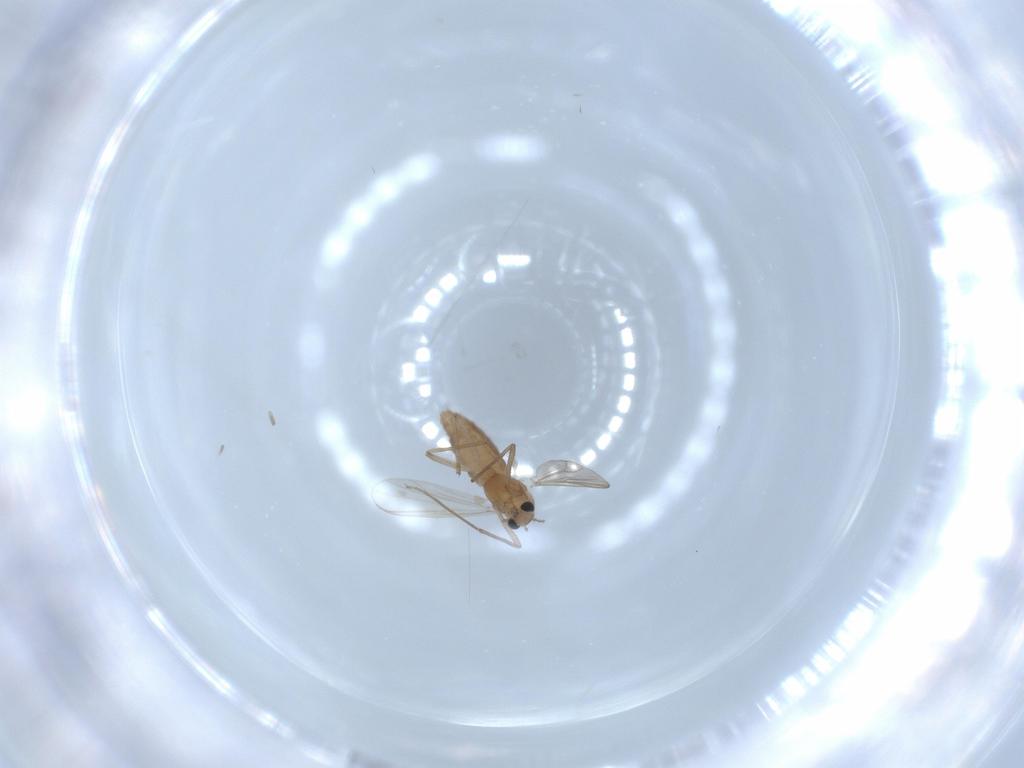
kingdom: Animalia
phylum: Arthropoda
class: Insecta
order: Diptera
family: Chironomidae
